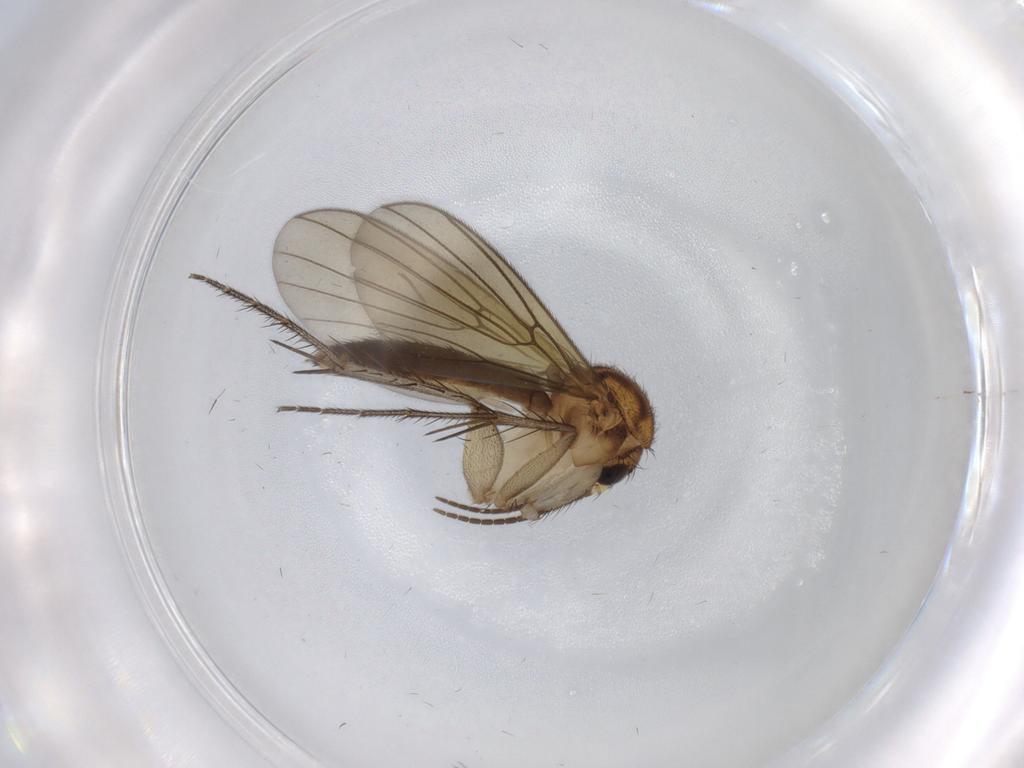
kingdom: Animalia
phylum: Arthropoda
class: Insecta
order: Diptera
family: Mycetophilidae
